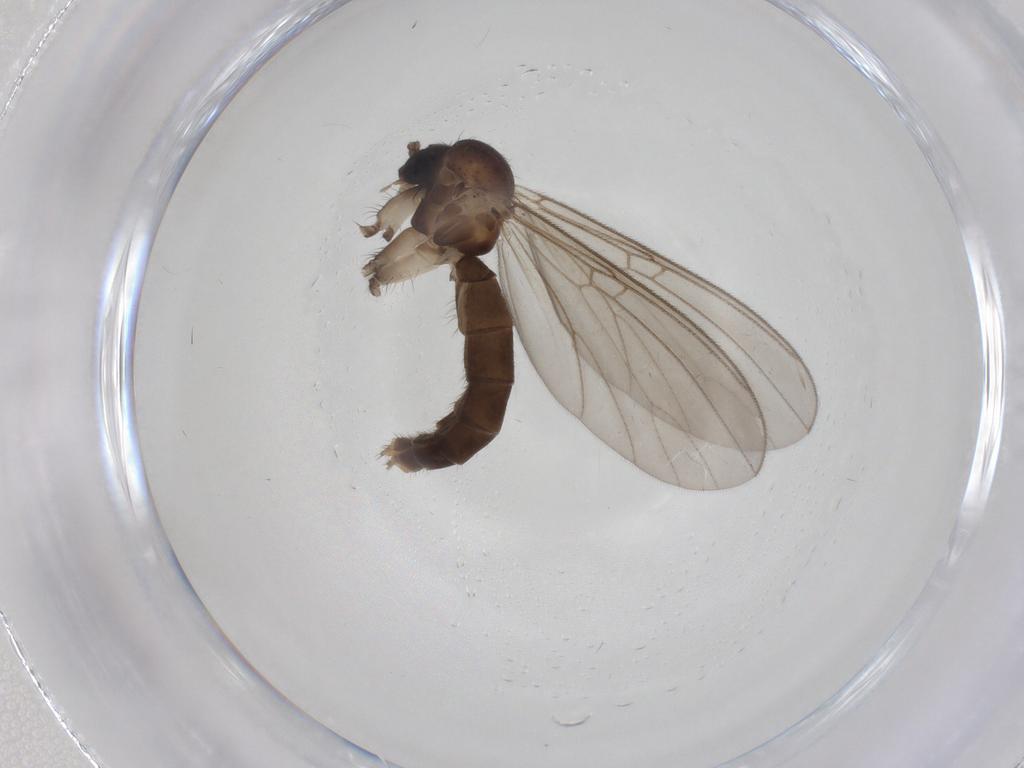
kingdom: Animalia
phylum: Arthropoda
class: Insecta
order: Diptera
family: Mycetophilidae
